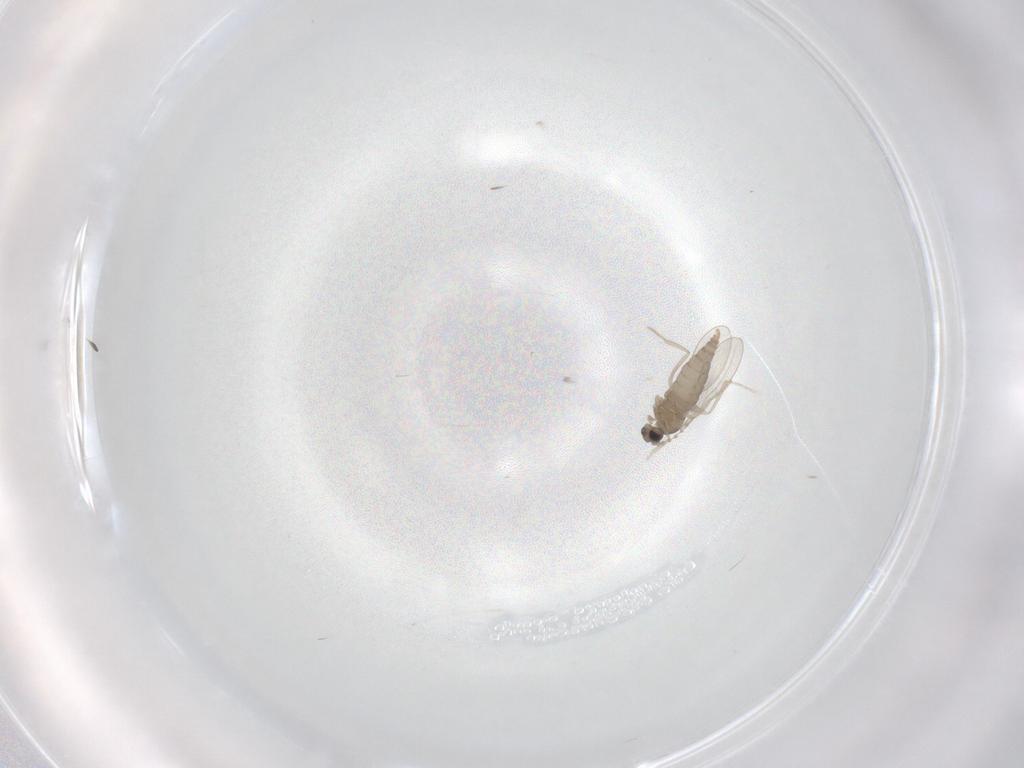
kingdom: Animalia
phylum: Arthropoda
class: Insecta
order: Diptera
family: Cecidomyiidae
